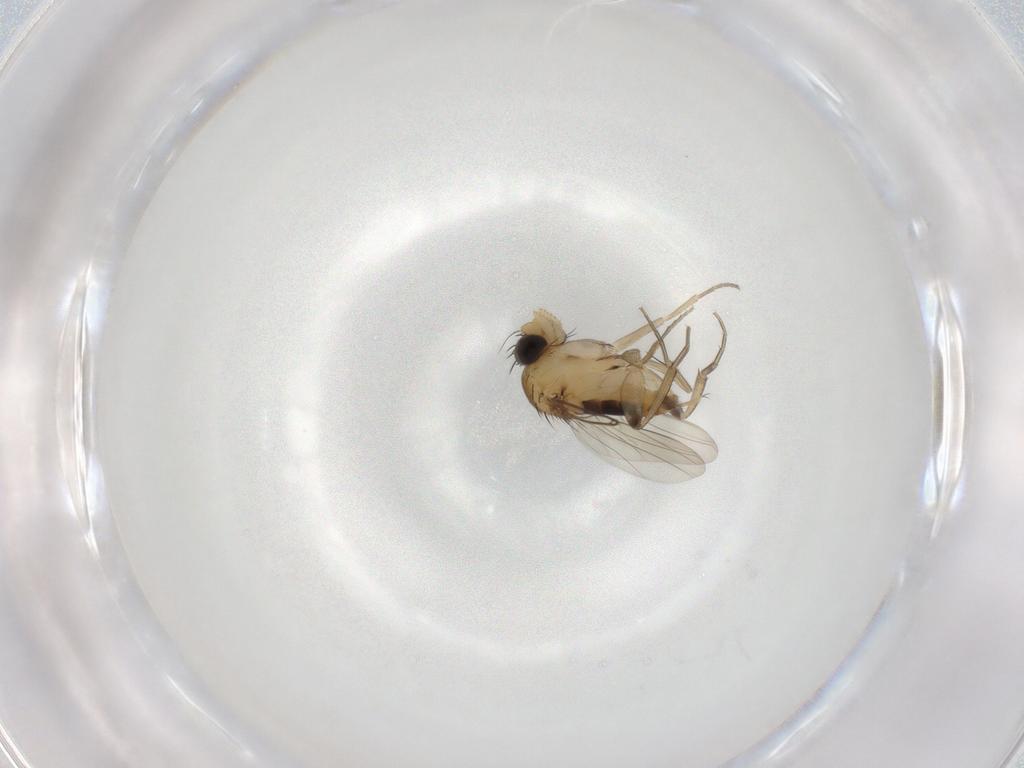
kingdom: Animalia
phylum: Arthropoda
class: Insecta
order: Diptera
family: Phoridae
